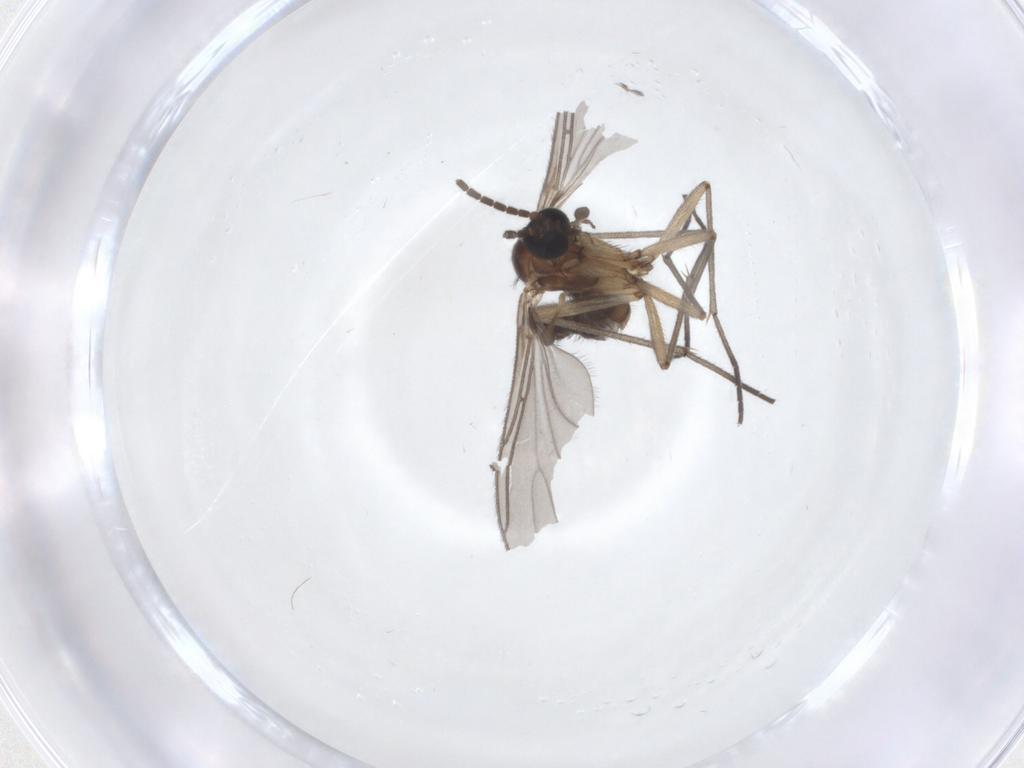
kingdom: Animalia
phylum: Arthropoda
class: Insecta
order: Diptera
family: Sciaridae
